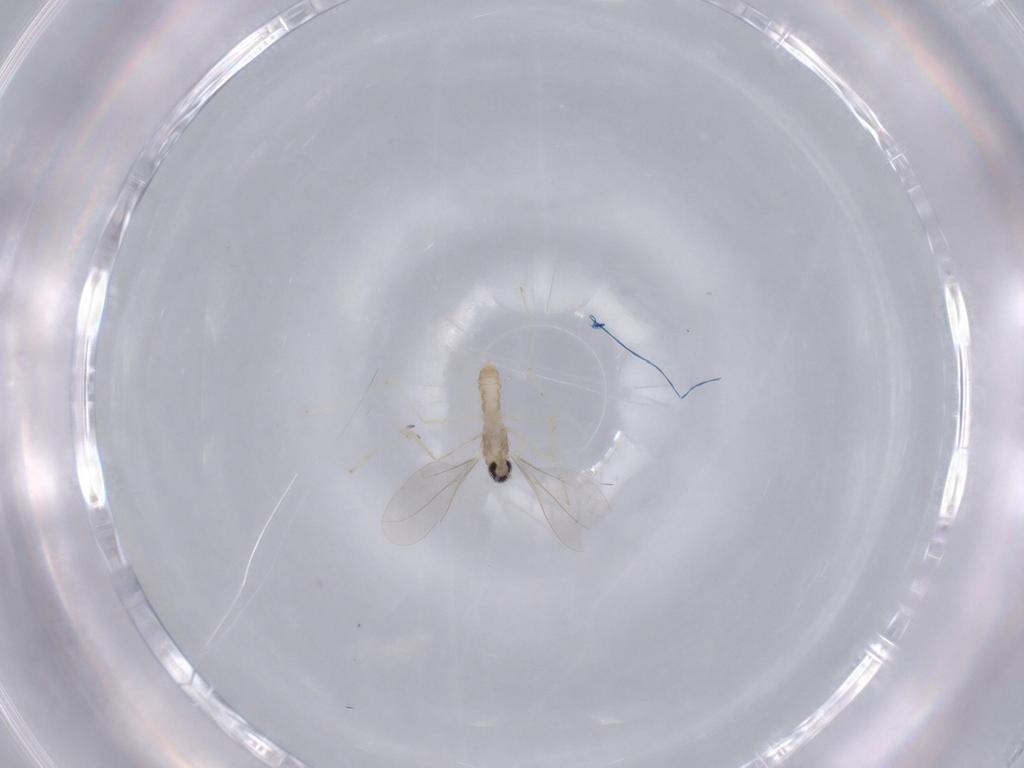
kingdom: Animalia
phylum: Arthropoda
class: Insecta
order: Diptera
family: Cecidomyiidae
